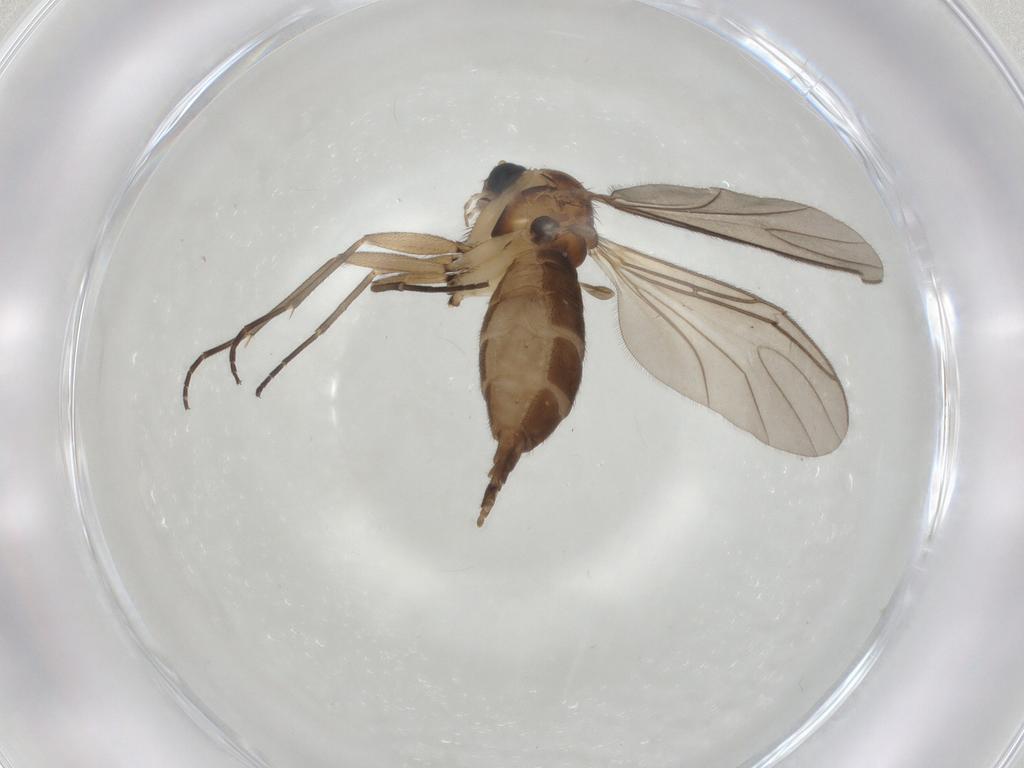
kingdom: Animalia
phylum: Arthropoda
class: Insecta
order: Diptera
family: Sciaridae
